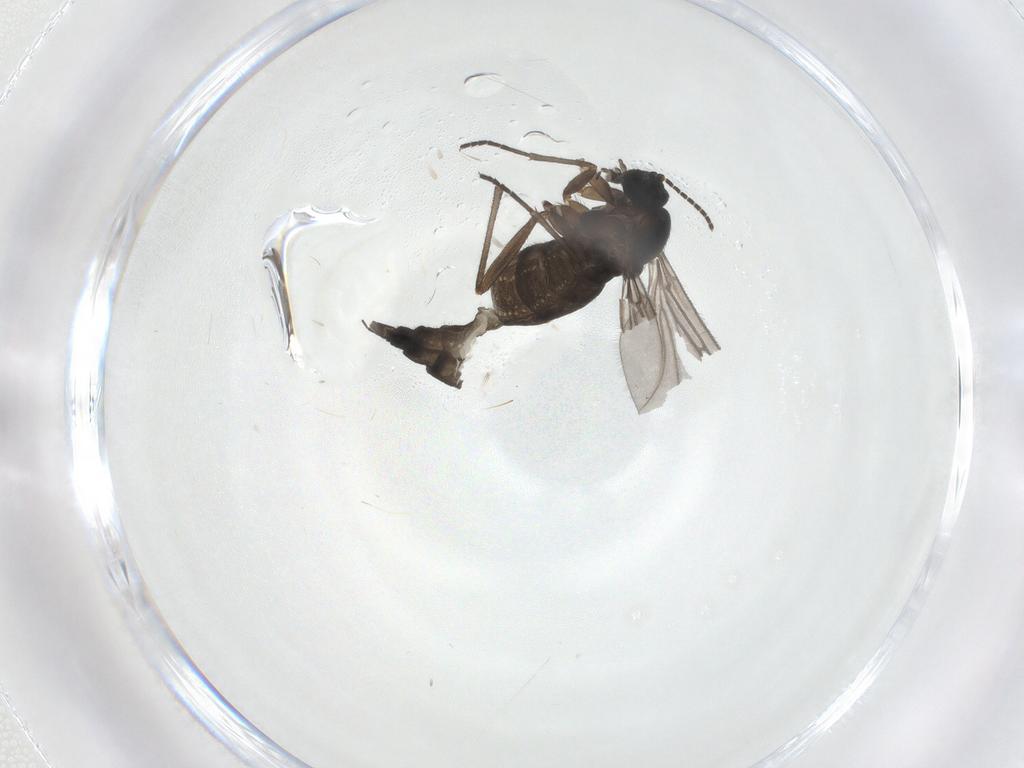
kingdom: Animalia
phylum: Arthropoda
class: Insecta
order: Diptera
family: Sciaridae
